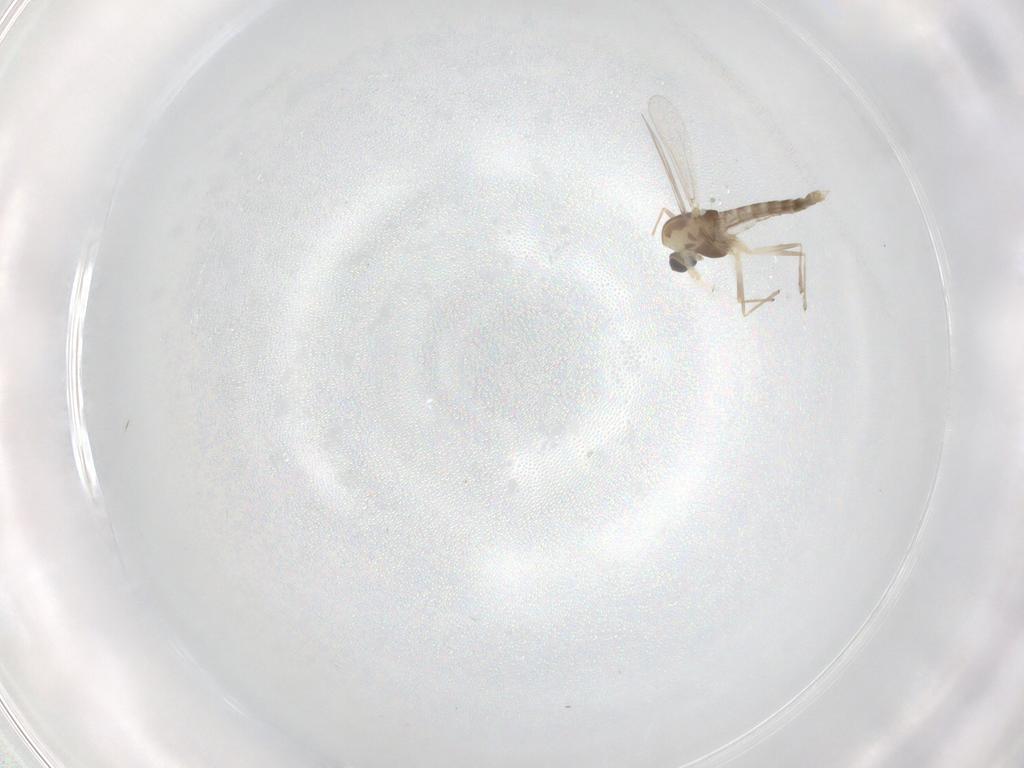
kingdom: Animalia
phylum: Arthropoda
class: Insecta
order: Diptera
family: Chironomidae
